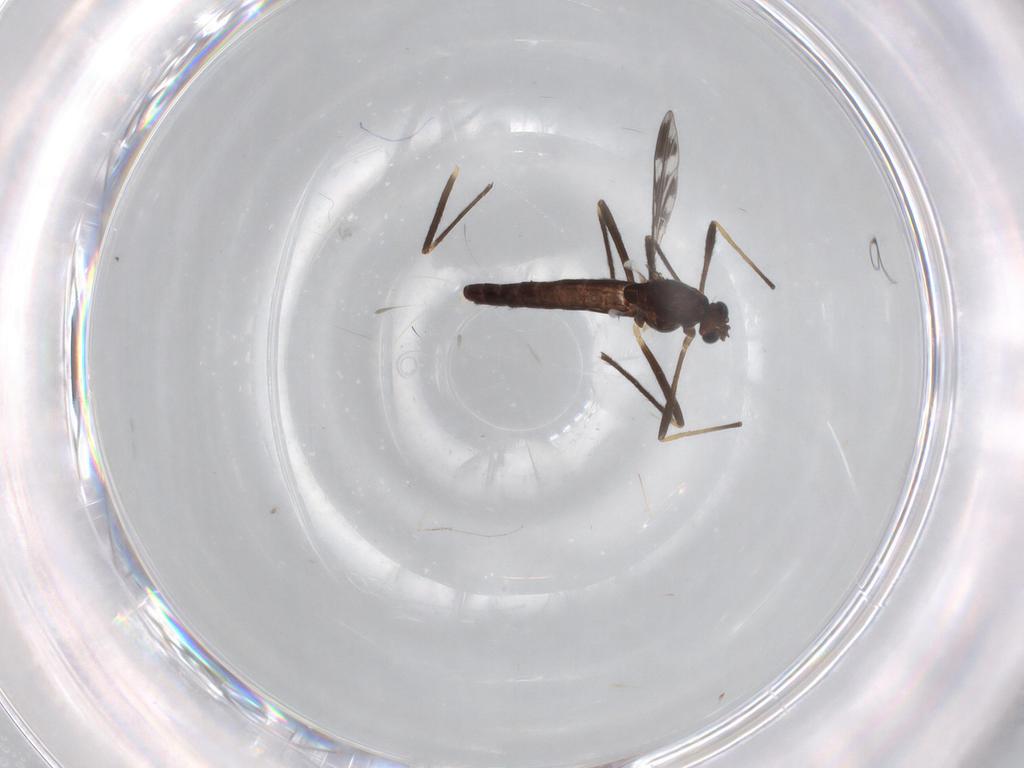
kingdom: Animalia
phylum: Arthropoda
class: Insecta
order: Diptera
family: Chironomidae
